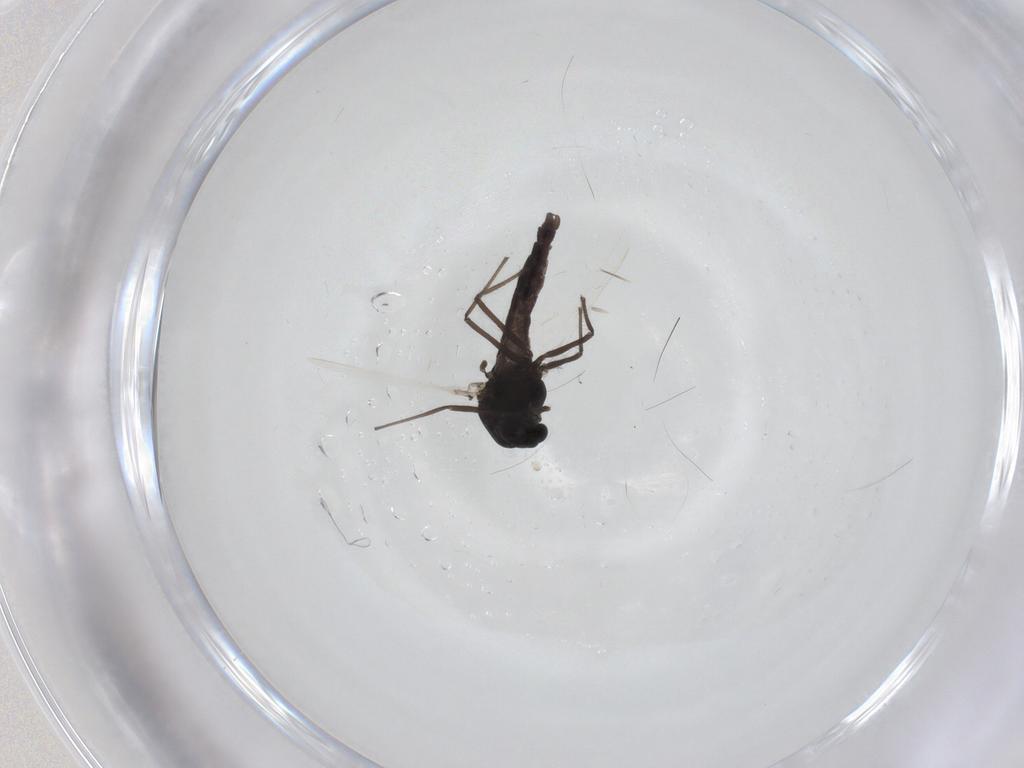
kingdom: Animalia
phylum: Arthropoda
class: Insecta
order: Diptera
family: Chironomidae
